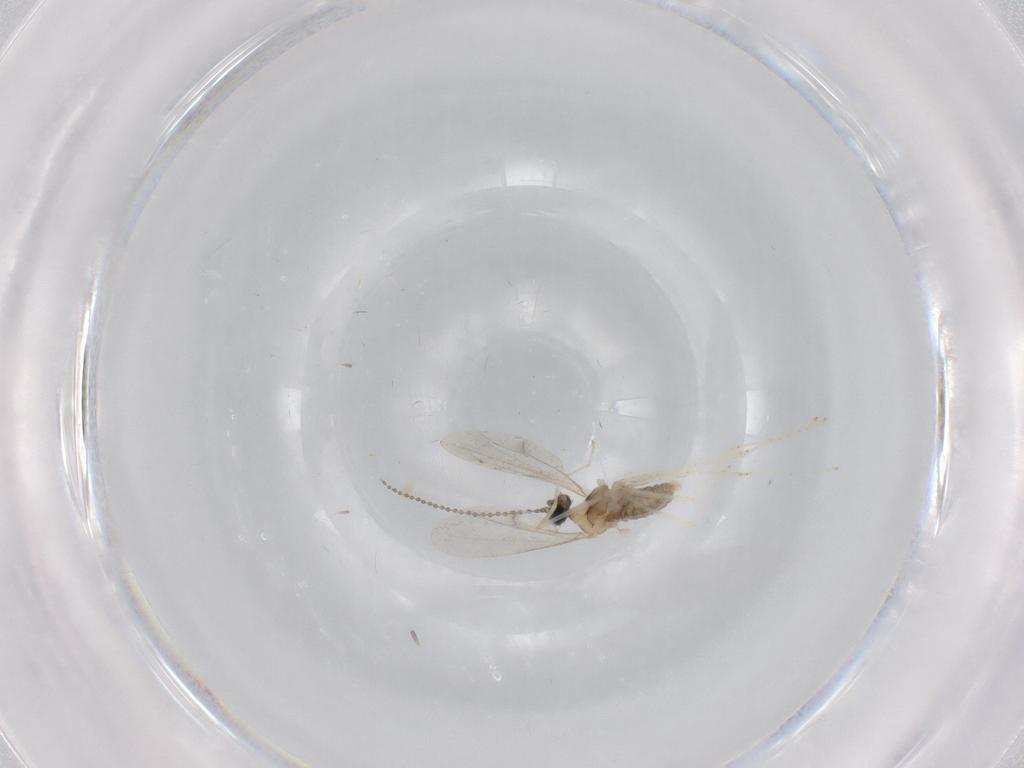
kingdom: Animalia
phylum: Arthropoda
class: Insecta
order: Diptera
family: Cecidomyiidae
